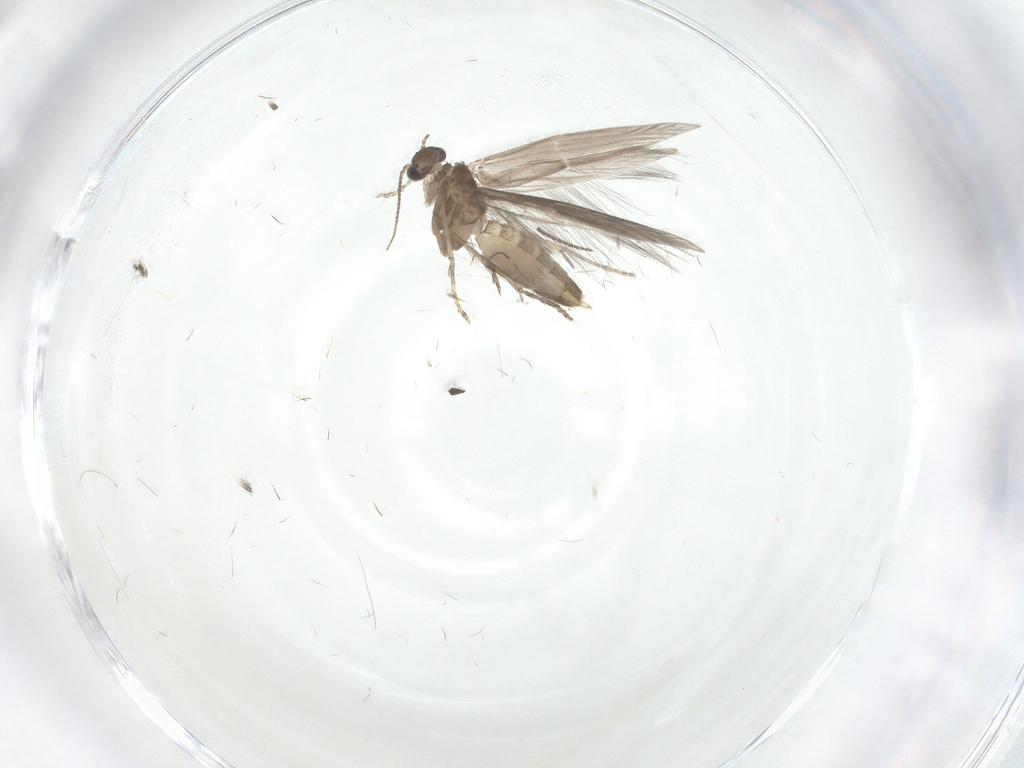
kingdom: Animalia
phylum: Arthropoda
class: Insecta
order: Trichoptera
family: Hydroptilidae
